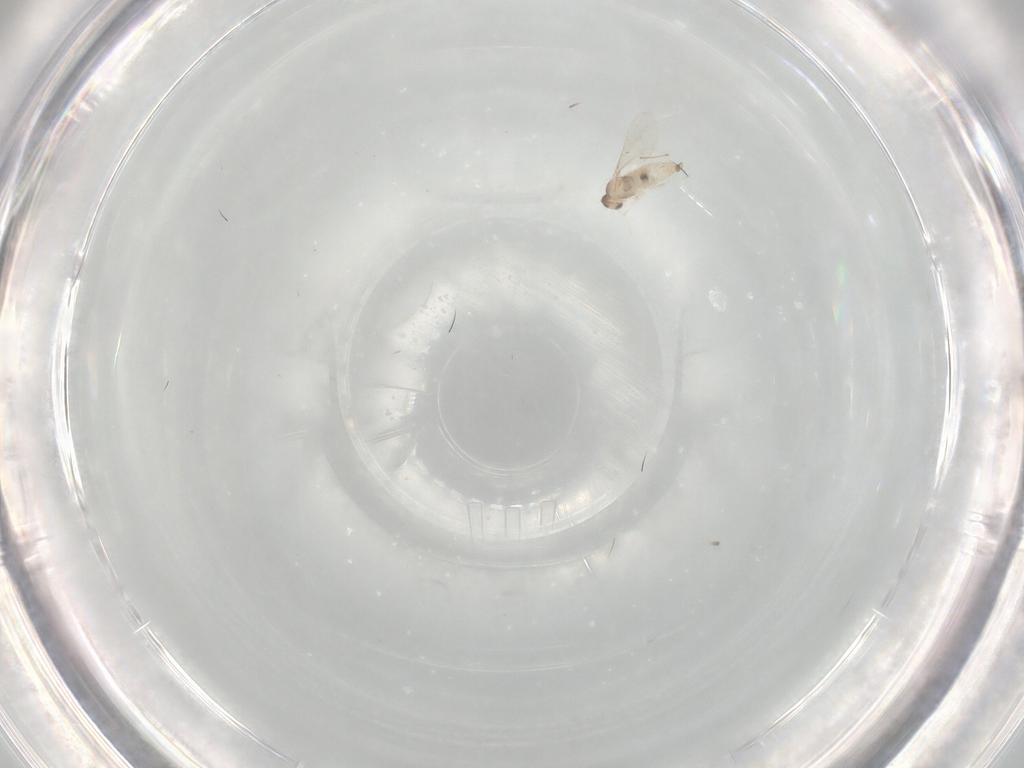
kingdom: Animalia
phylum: Arthropoda
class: Insecta
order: Diptera
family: Cecidomyiidae
